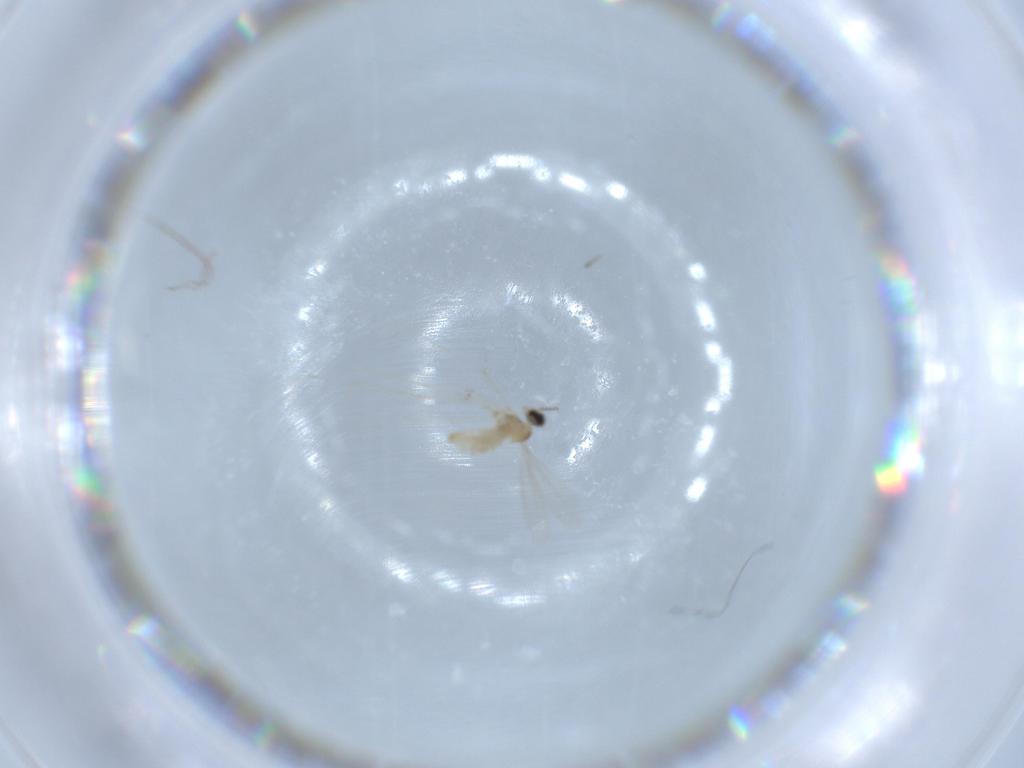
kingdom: Animalia
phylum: Arthropoda
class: Insecta
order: Diptera
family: Cecidomyiidae
